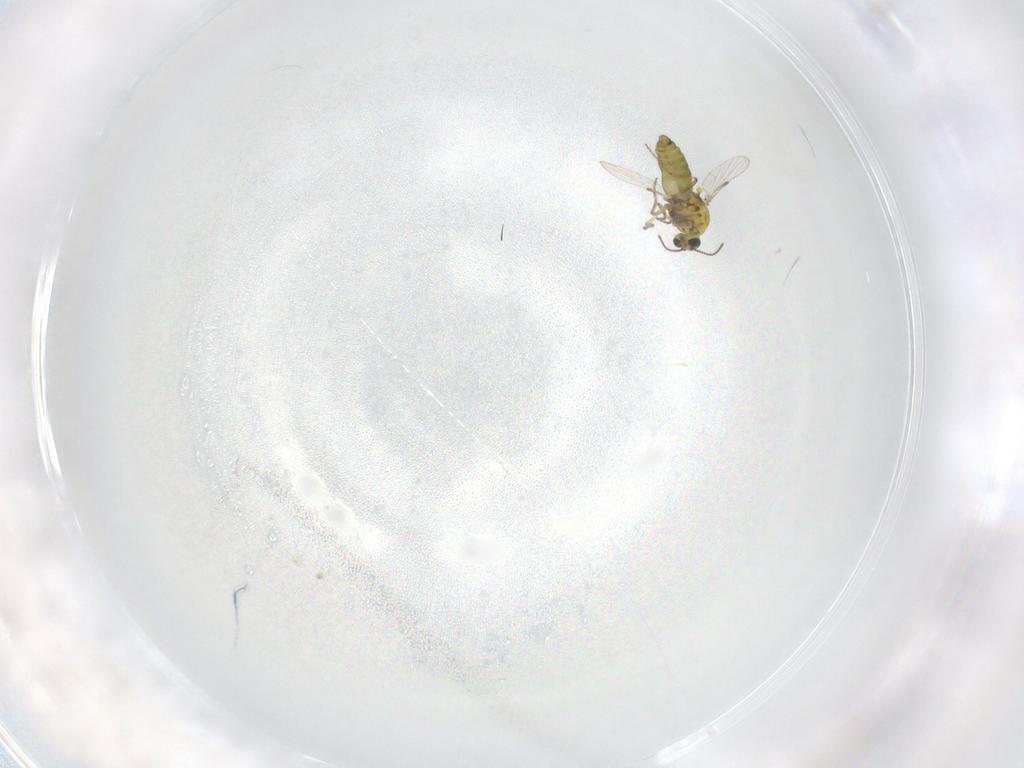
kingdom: Animalia
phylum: Arthropoda
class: Insecta
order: Diptera
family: Ceratopogonidae
